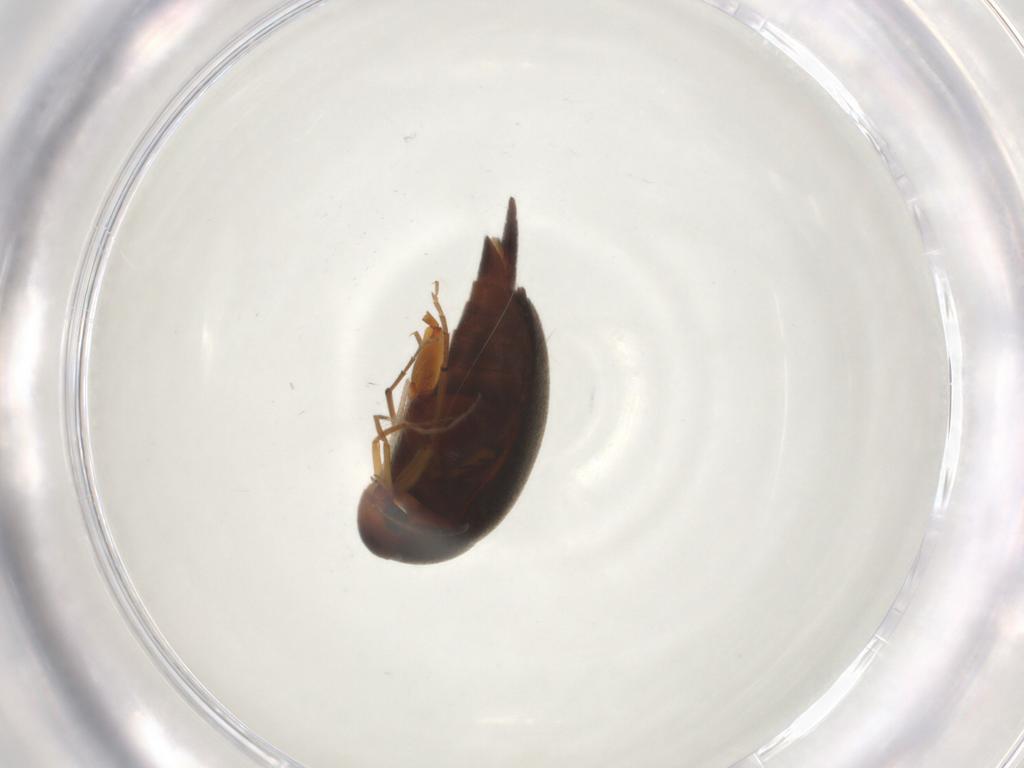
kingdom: Animalia
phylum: Arthropoda
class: Insecta
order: Coleoptera
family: Mordellidae
